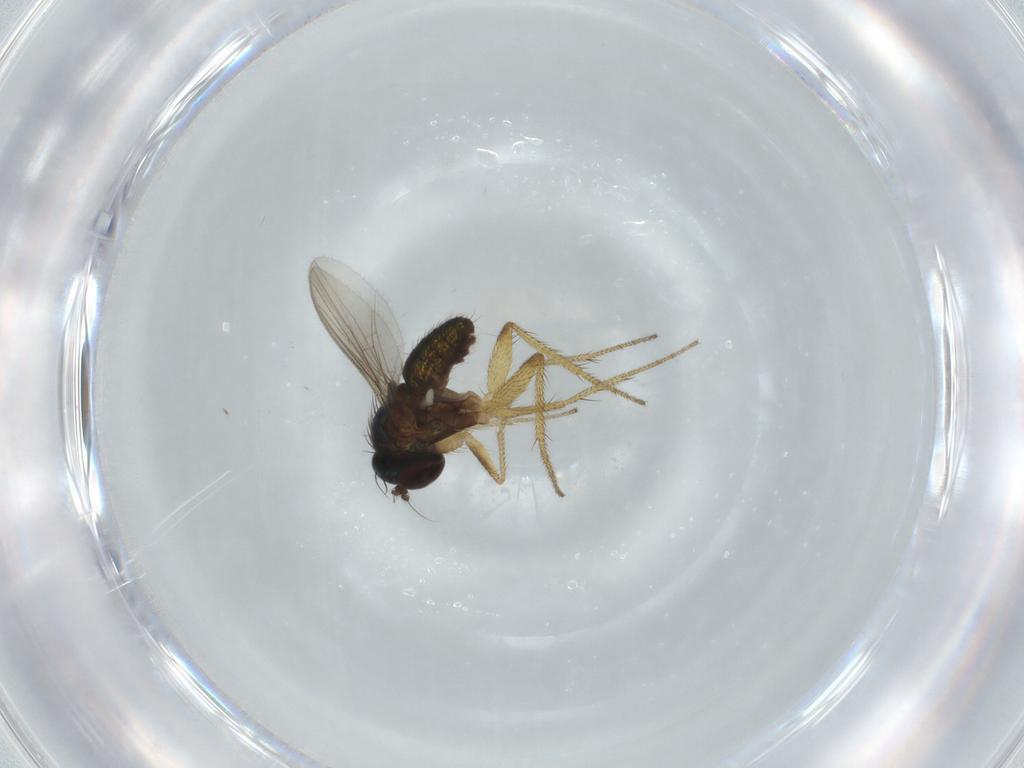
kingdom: Animalia
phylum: Arthropoda
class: Insecta
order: Diptera
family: Dolichopodidae
